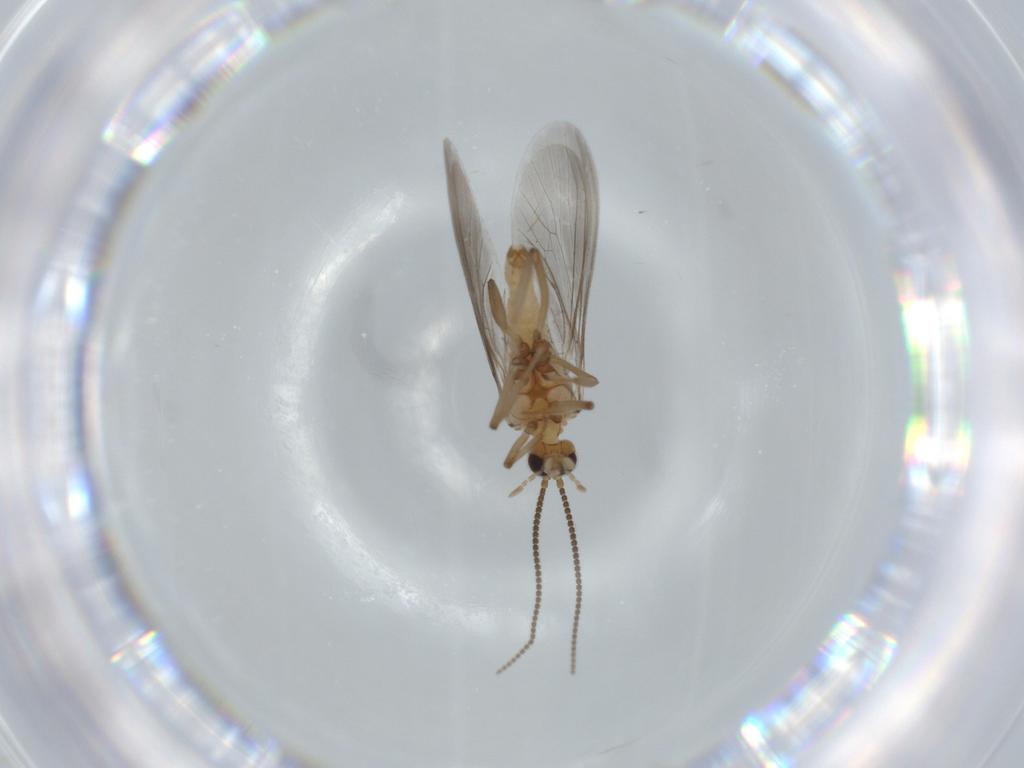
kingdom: Animalia
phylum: Arthropoda
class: Insecta
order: Neuroptera
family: Coniopterygidae
